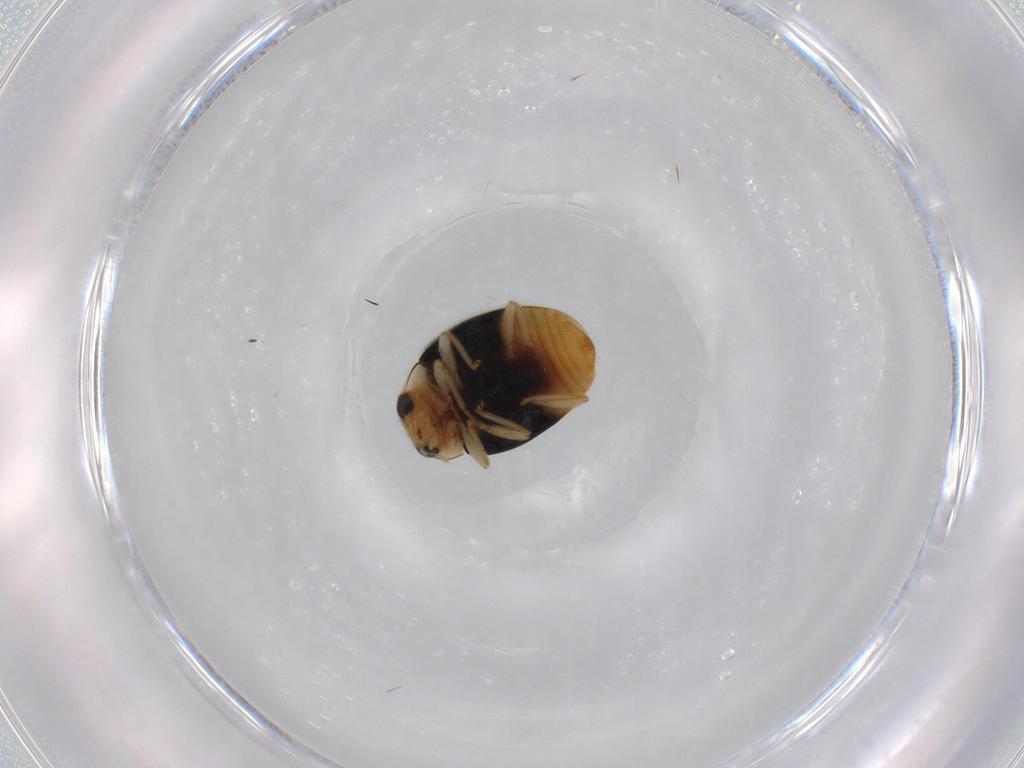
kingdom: Animalia
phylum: Arthropoda
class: Insecta
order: Coleoptera
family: Coccinellidae
